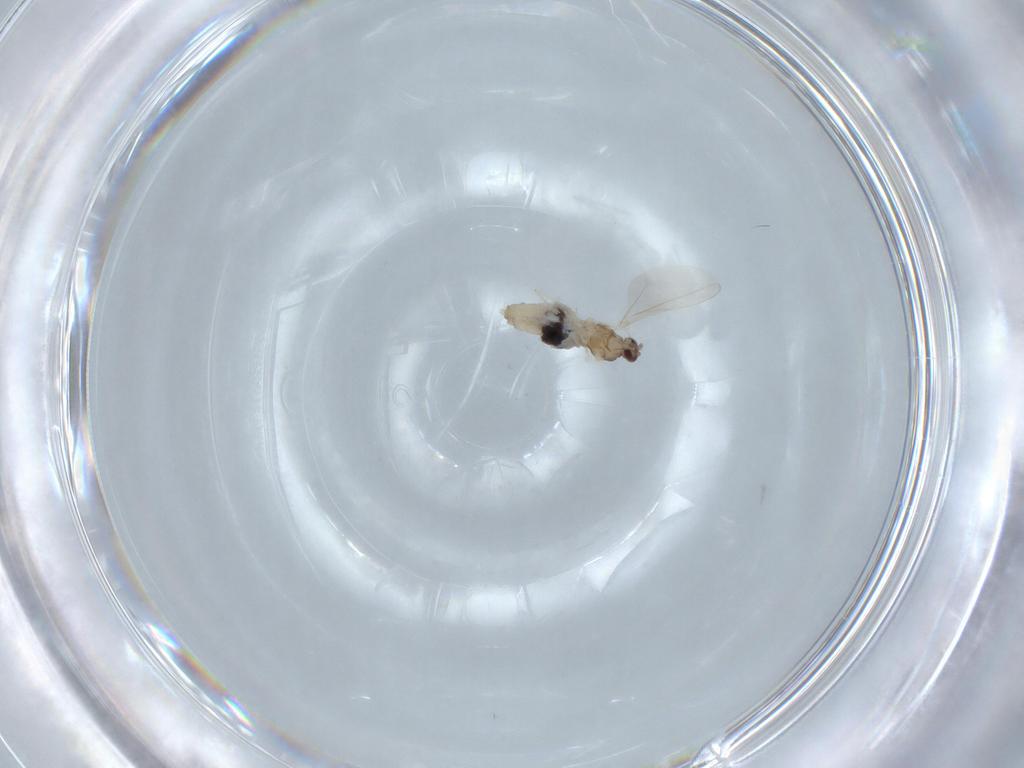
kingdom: Animalia
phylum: Arthropoda
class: Insecta
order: Diptera
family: Cecidomyiidae
